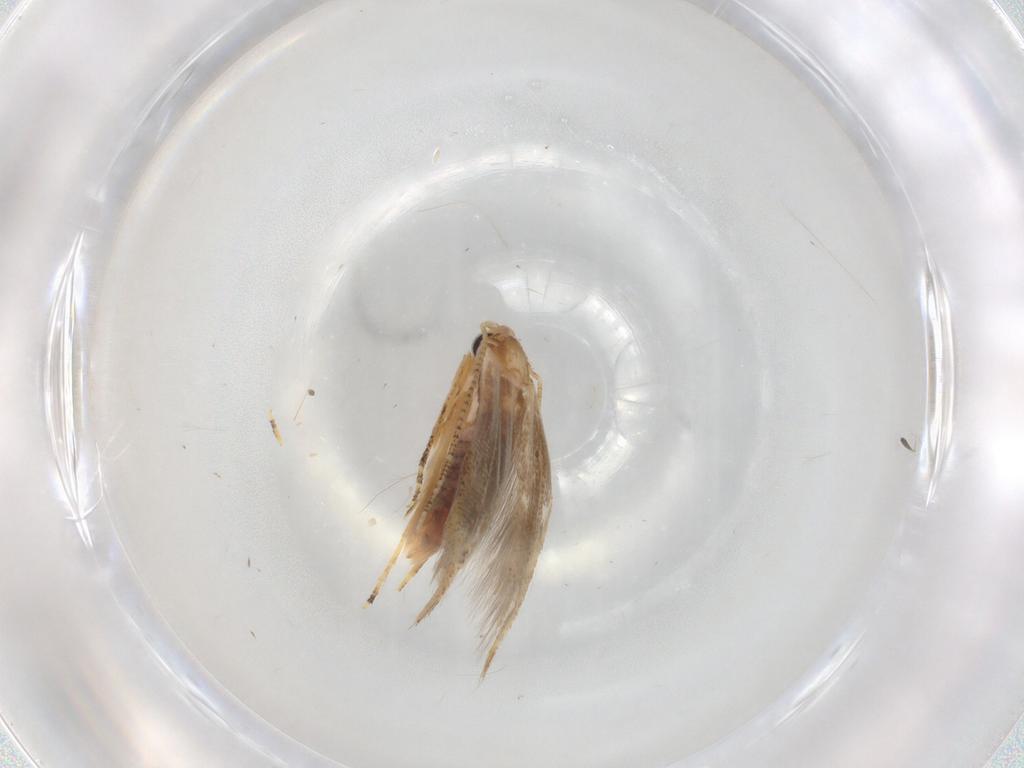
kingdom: Animalia
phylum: Arthropoda
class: Insecta
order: Lepidoptera
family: Bucculatricidae
